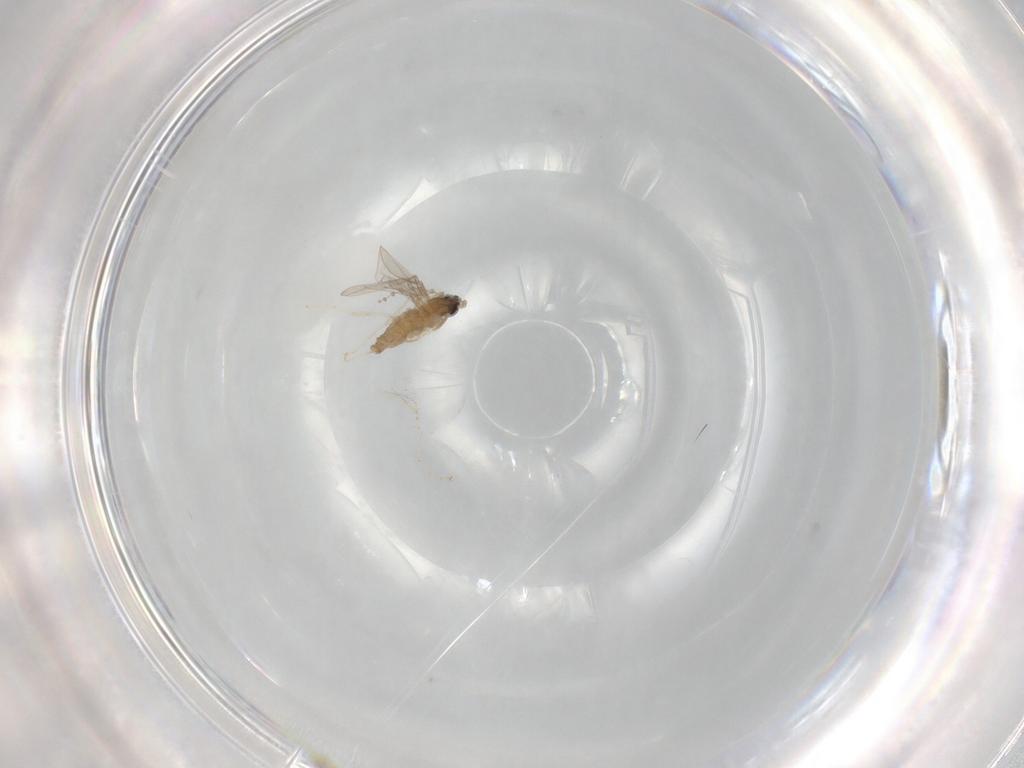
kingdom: Animalia
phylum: Arthropoda
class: Insecta
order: Diptera
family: Cecidomyiidae
